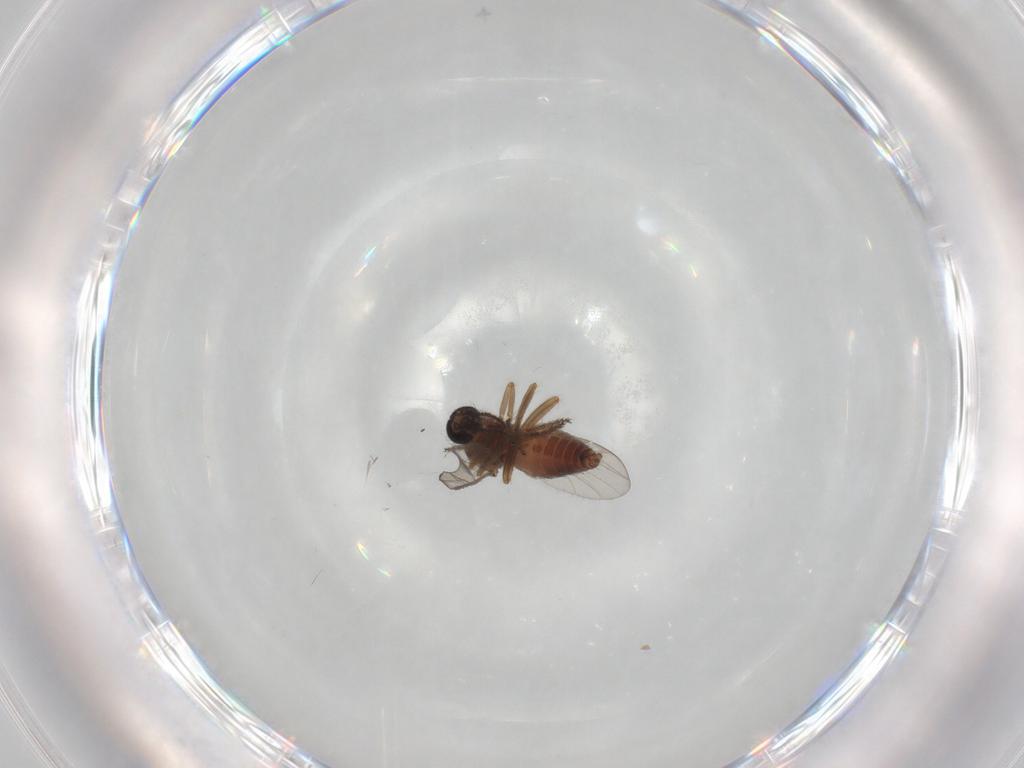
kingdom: Animalia
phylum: Arthropoda
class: Insecta
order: Diptera
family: Ceratopogonidae
